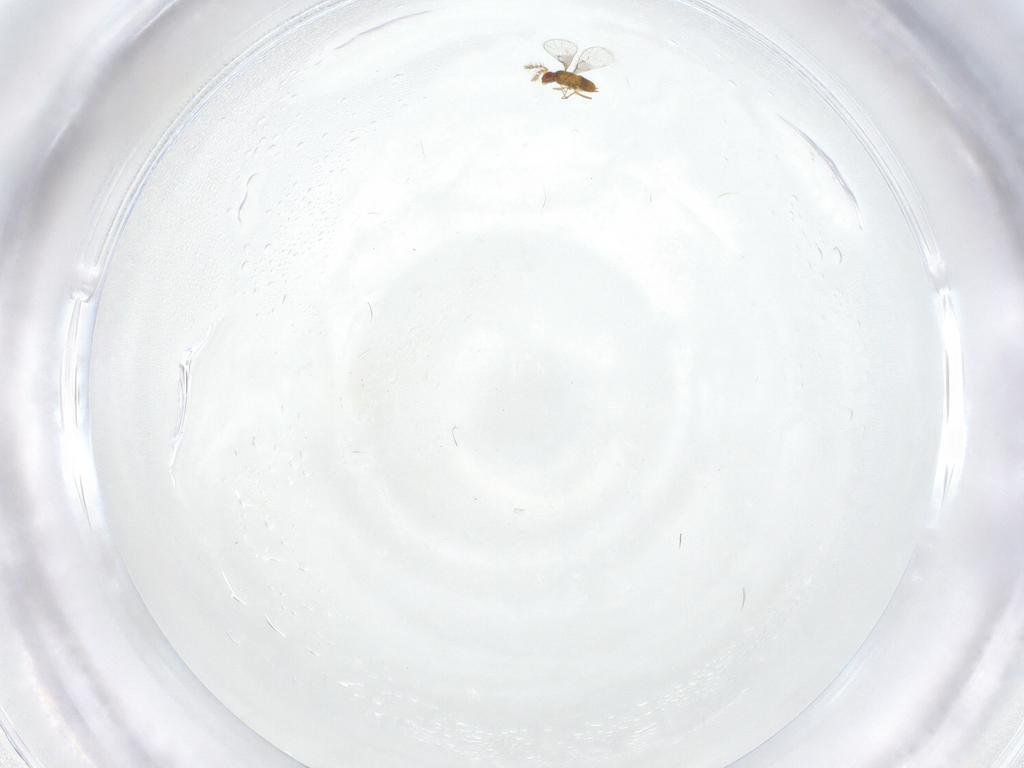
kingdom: Animalia
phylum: Arthropoda
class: Insecta
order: Hymenoptera
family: Trichogrammatidae
